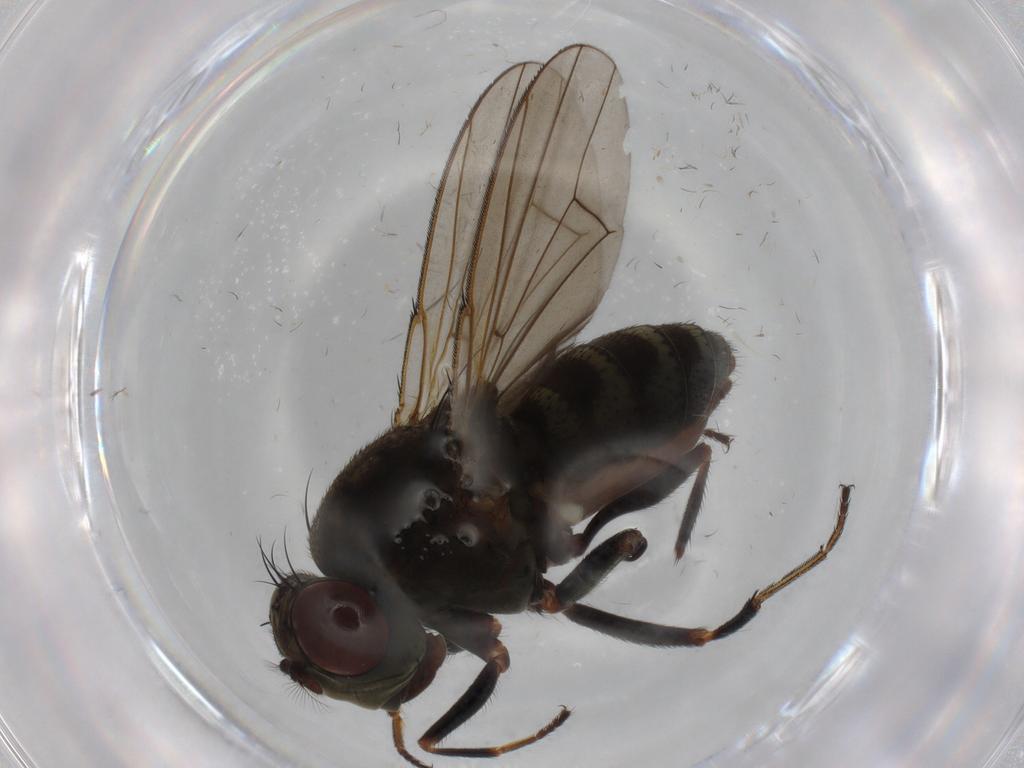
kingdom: Animalia
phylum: Arthropoda
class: Insecta
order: Diptera
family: Ephydridae
